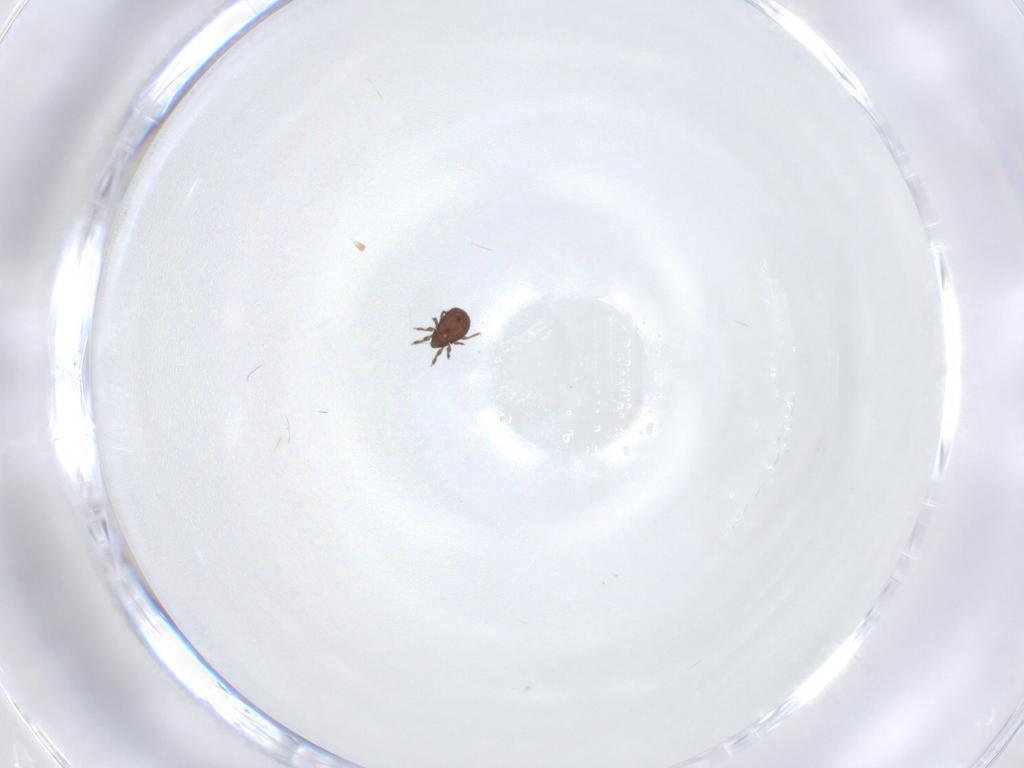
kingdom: Animalia
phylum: Arthropoda
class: Arachnida
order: Sarcoptiformes
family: Cymbaeremaeidae
